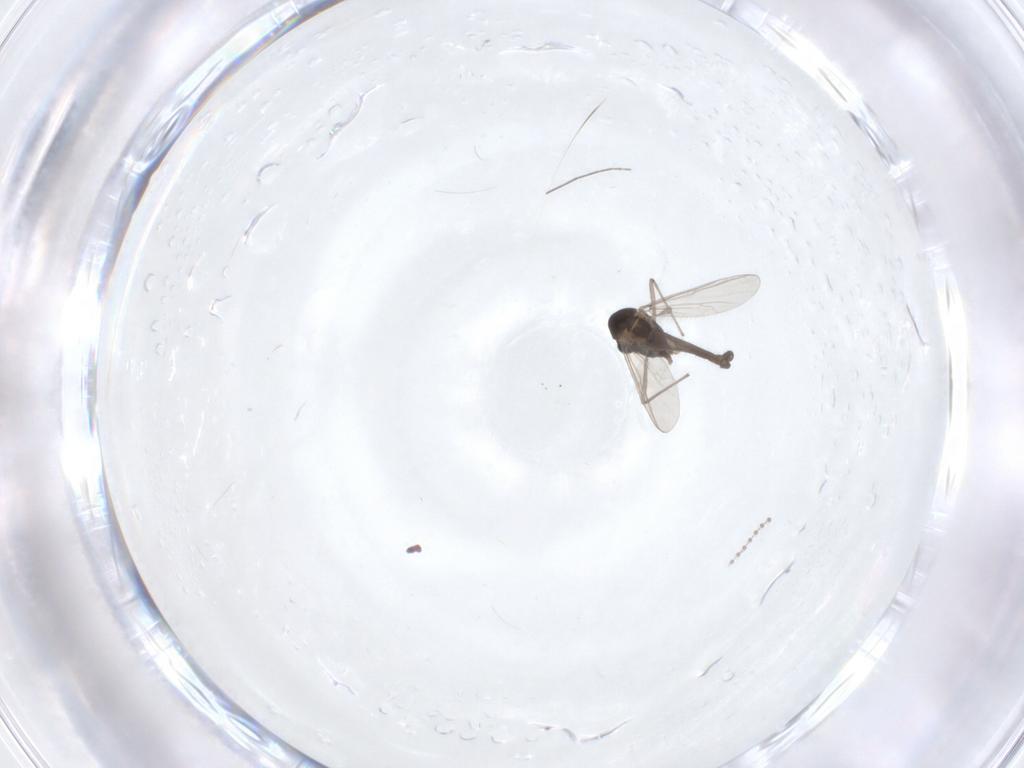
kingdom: Animalia
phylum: Arthropoda
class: Insecta
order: Diptera
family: Chironomidae
